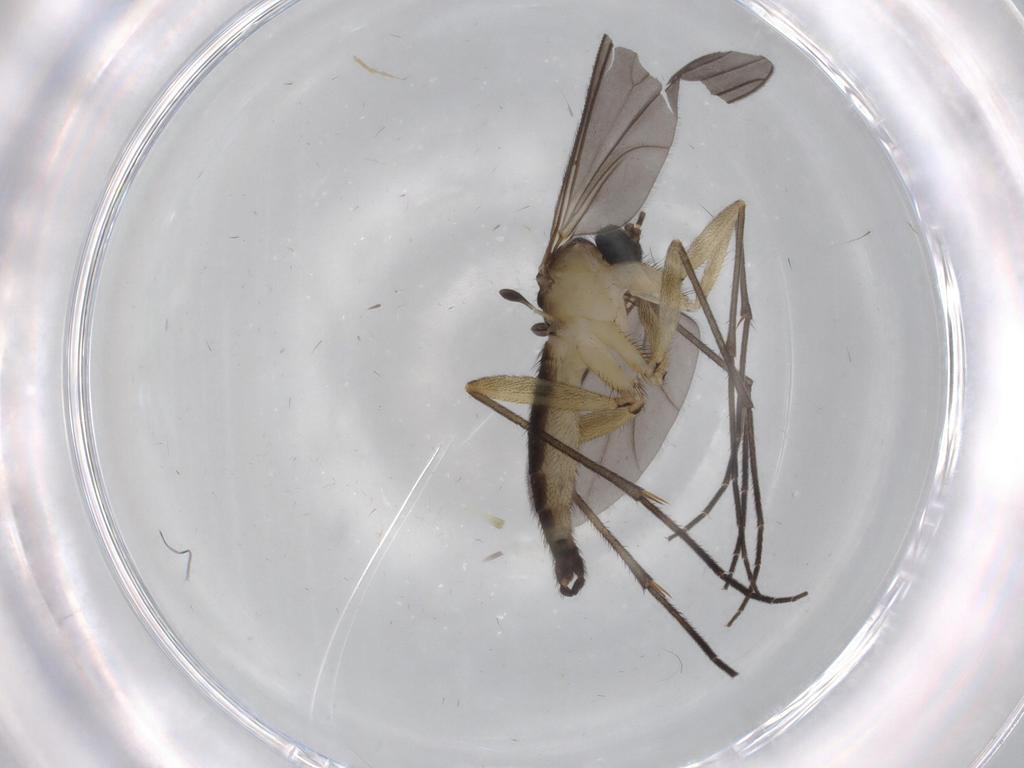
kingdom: Animalia
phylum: Arthropoda
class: Insecta
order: Diptera
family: Sciaridae
